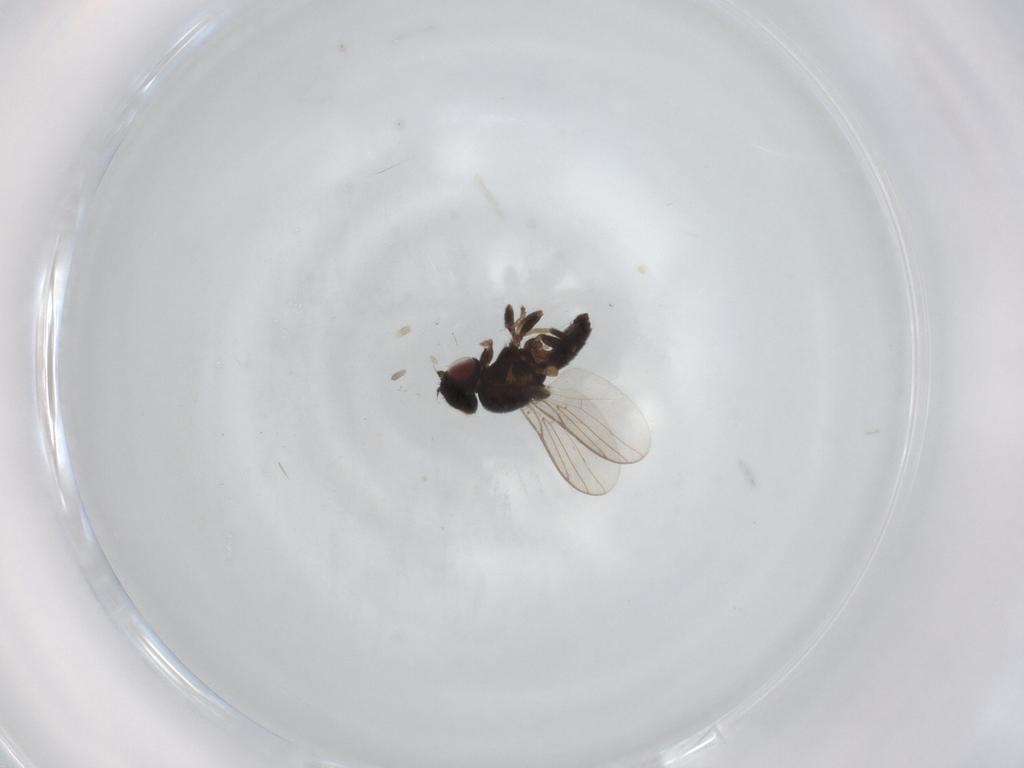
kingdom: Animalia
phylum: Arthropoda
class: Insecta
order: Diptera
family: Chloropidae
